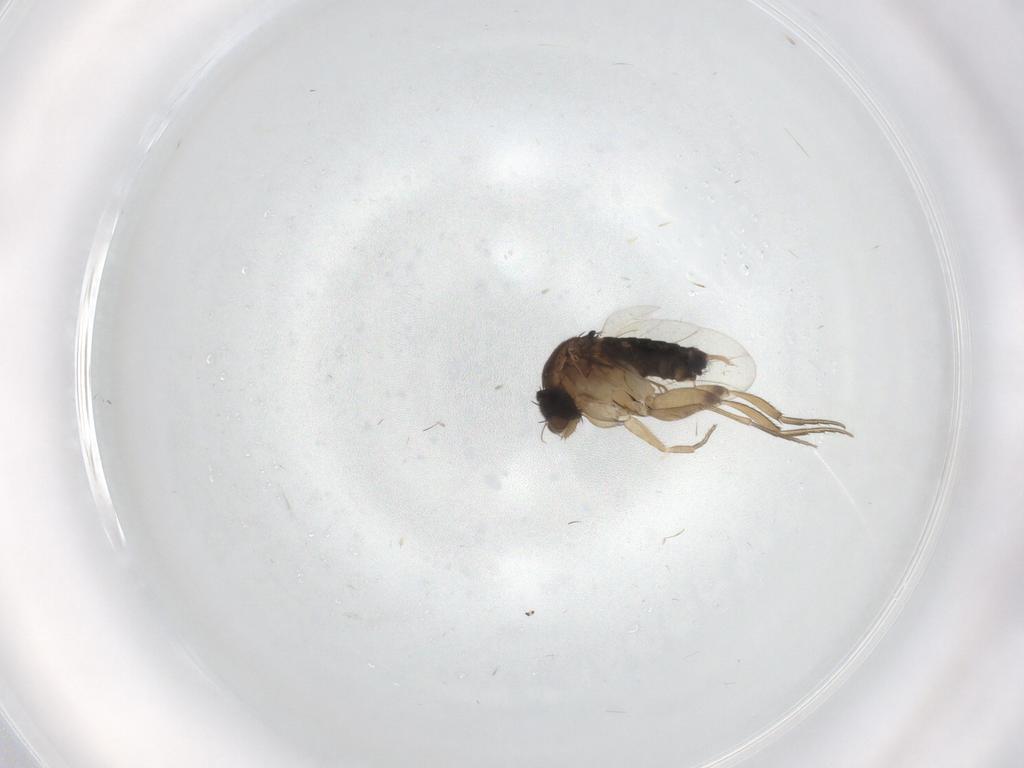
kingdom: Animalia
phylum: Arthropoda
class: Insecta
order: Diptera
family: Phoridae
